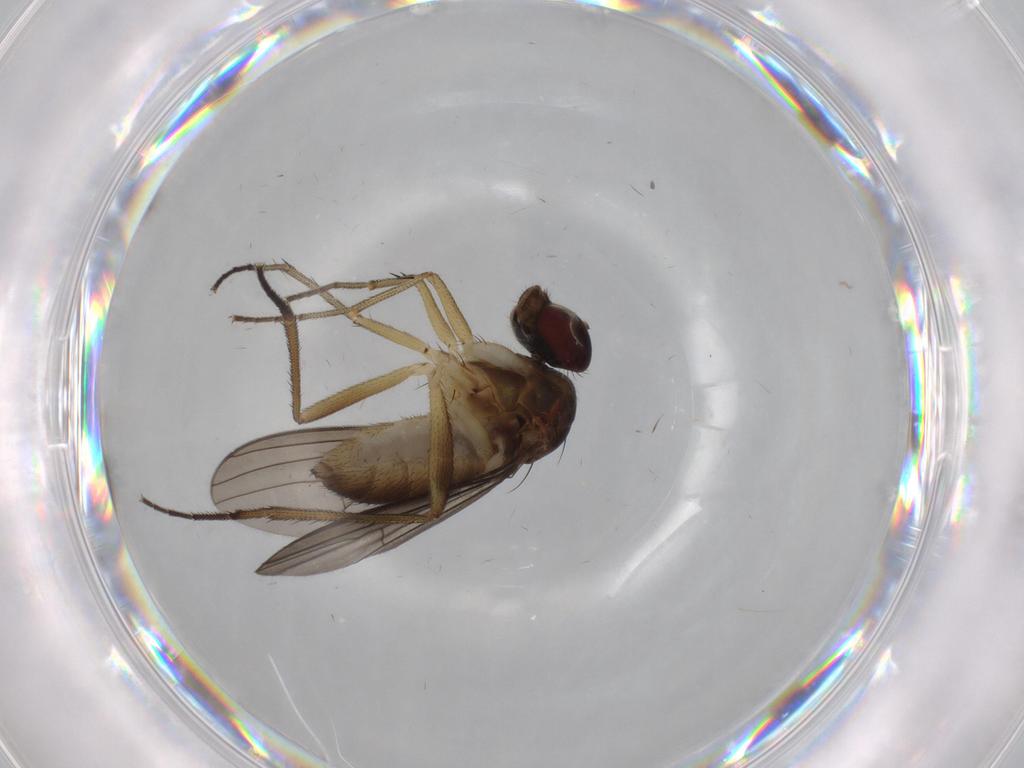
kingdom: Animalia
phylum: Arthropoda
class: Insecta
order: Diptera
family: Dolichopodidae
